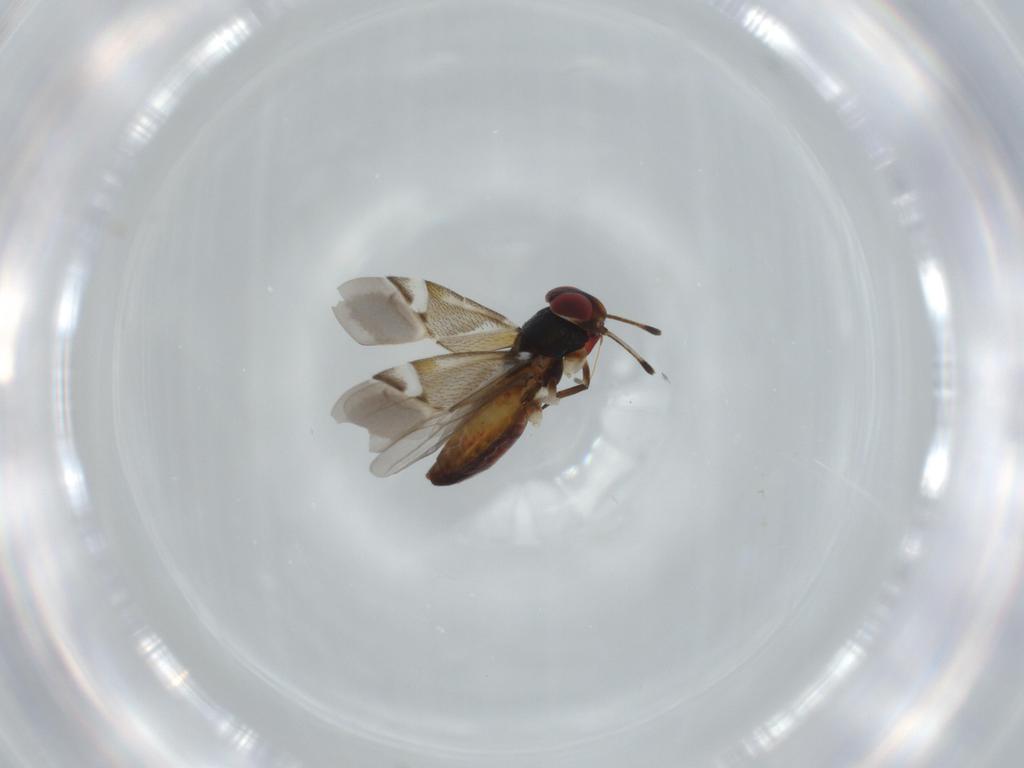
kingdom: Animalia
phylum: Arthropoda
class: Insecta
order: Hemiptera
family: Miridae
